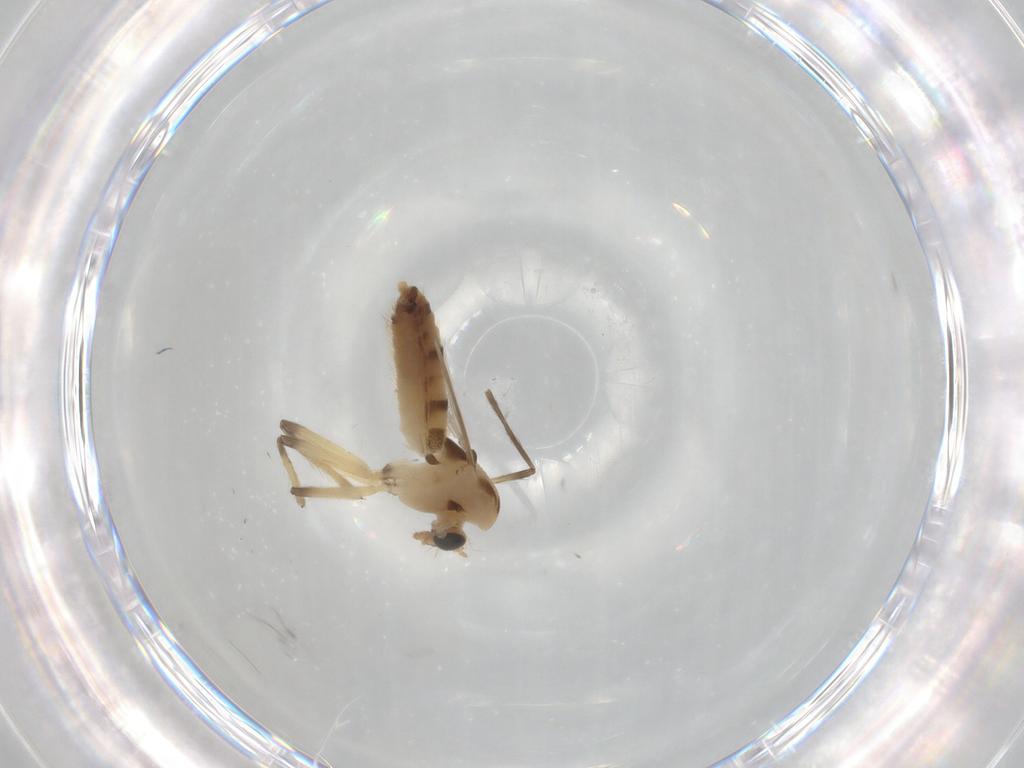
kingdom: Animalia
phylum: Arthropoda
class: Insecta
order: Diptera
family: Chironomidae
